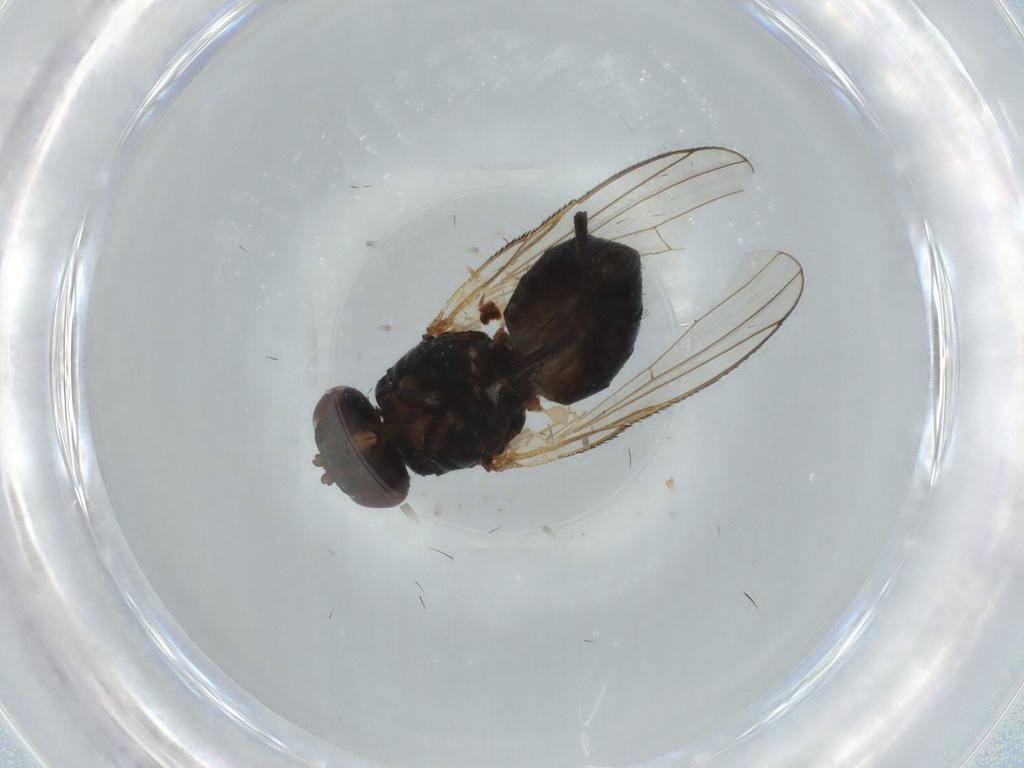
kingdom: Animalia
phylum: Arthropoda
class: Insecta
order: Diptera
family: Fannia
